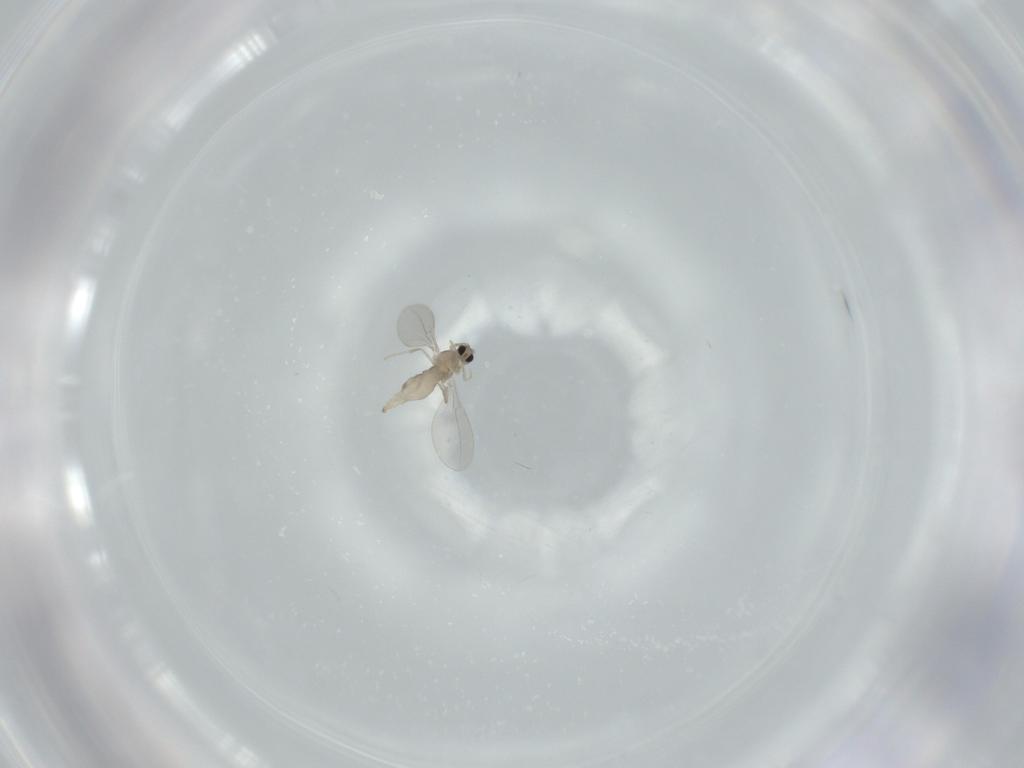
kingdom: Animalia
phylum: Arthropoda
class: Insecta
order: Diptera
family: Cecidomyiidae
